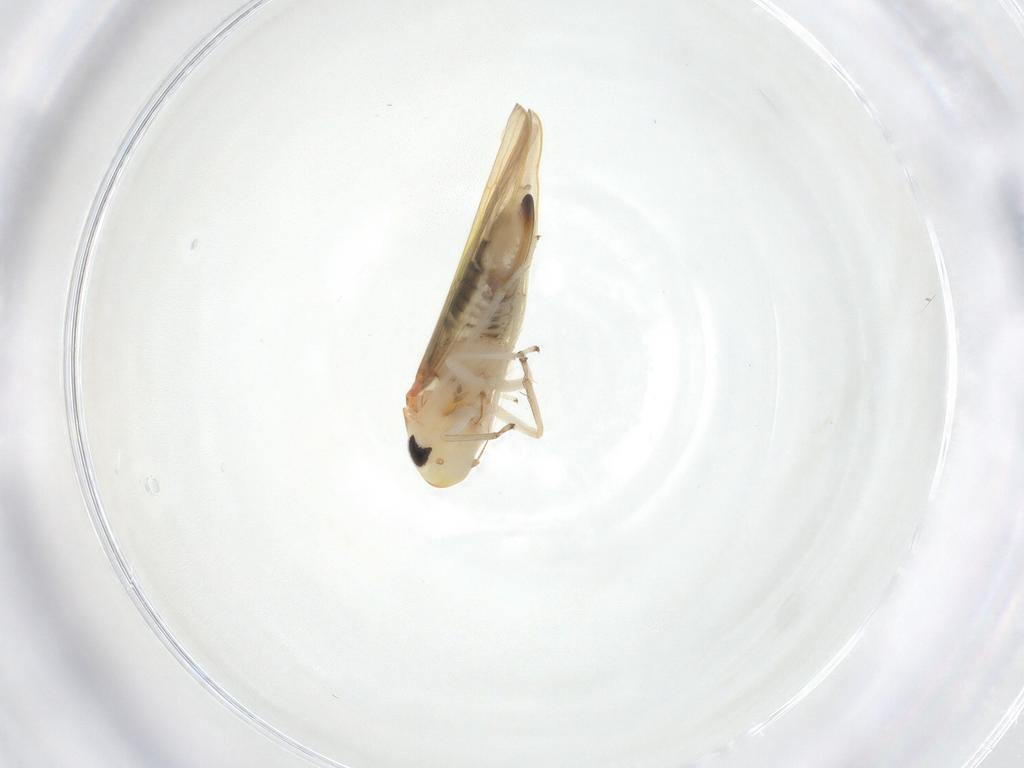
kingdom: Animalia
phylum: Arthropoda
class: Insecta
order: Hemiptera
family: Cicadellidae
